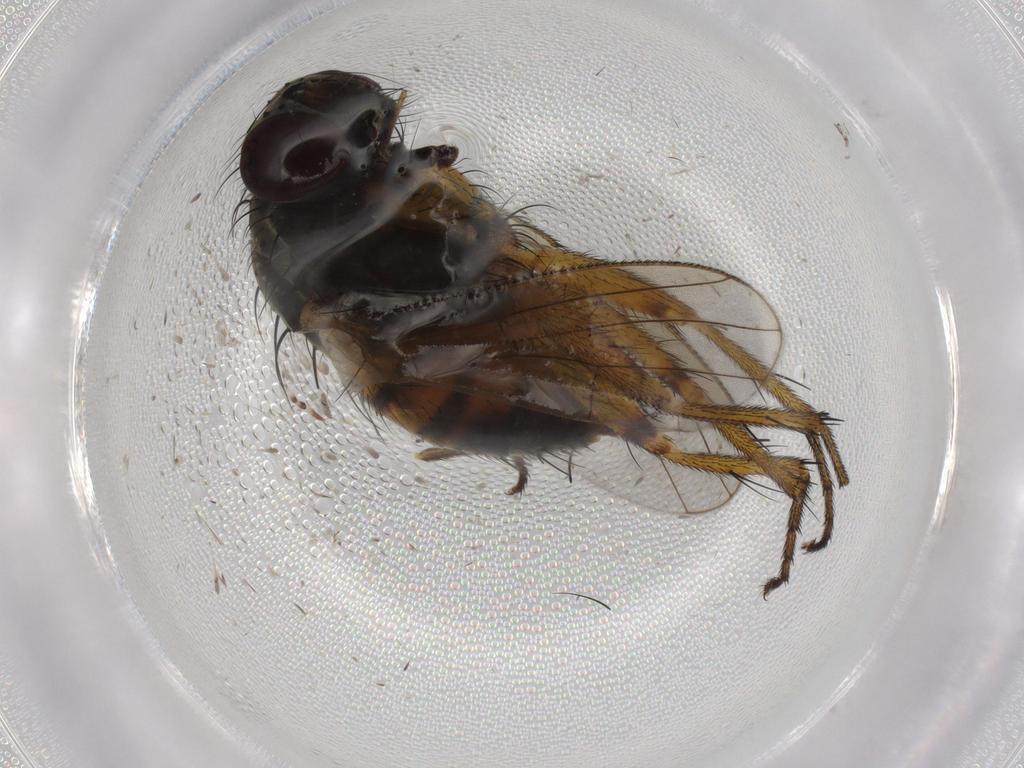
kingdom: Animalia
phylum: Arthropoda
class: Insecta
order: Diptera
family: Muscidae
